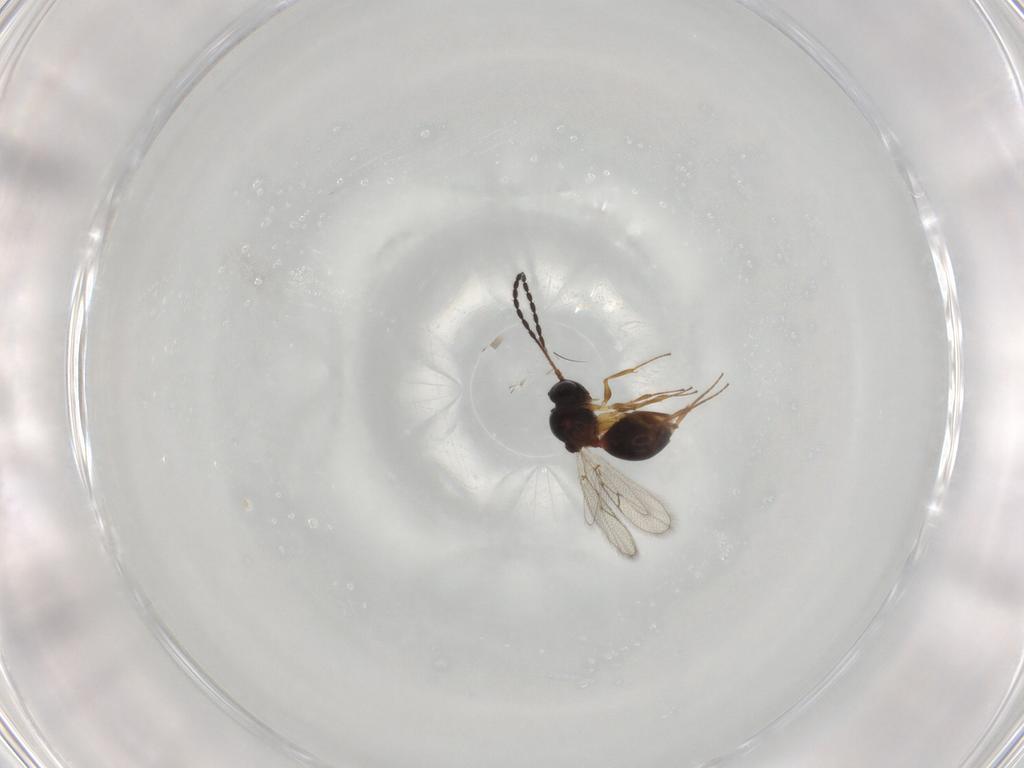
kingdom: Animalia
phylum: Arthropoda
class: Insecta
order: Hymenoptera
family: Figitidae
